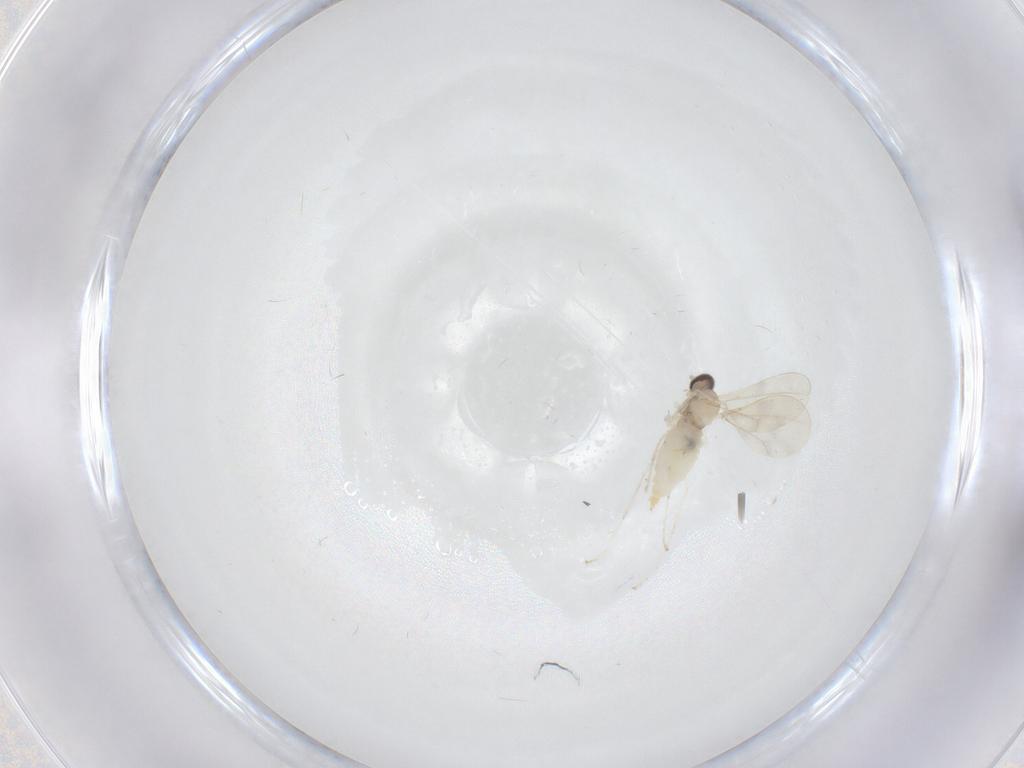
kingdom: Animalia
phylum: Arthropoda
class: Insecta
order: Diptera
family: Cecidomyiidae
